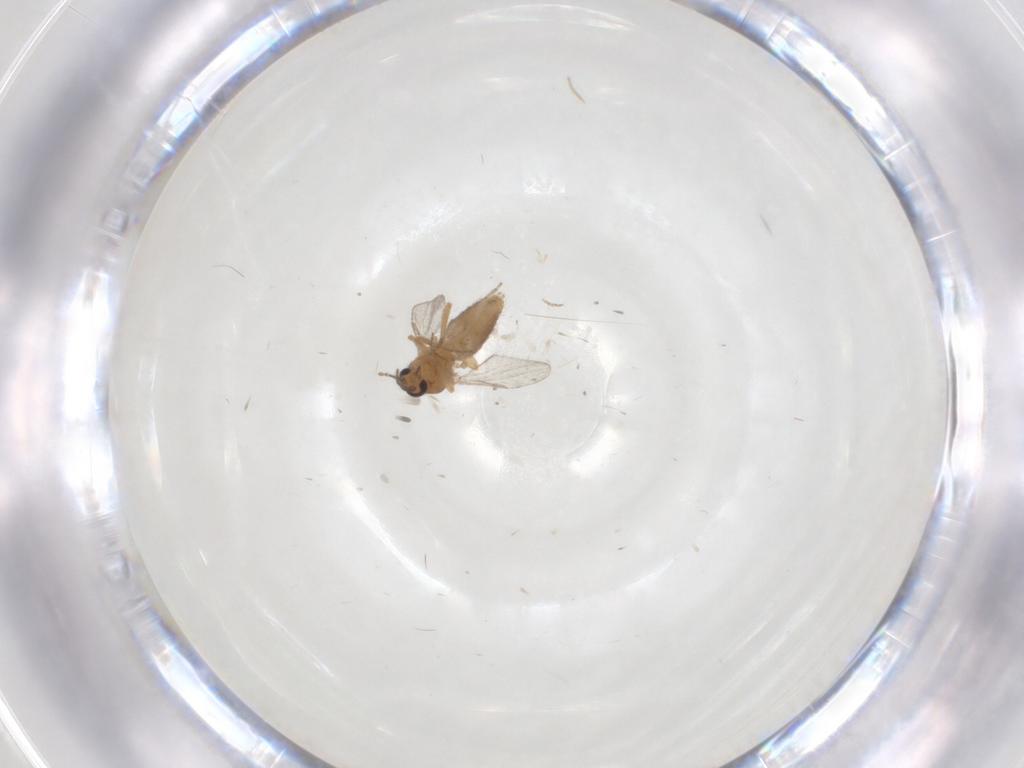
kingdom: Animalia
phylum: Arthropoda
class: Insecta
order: Diptera
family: Ceratopogonidae
